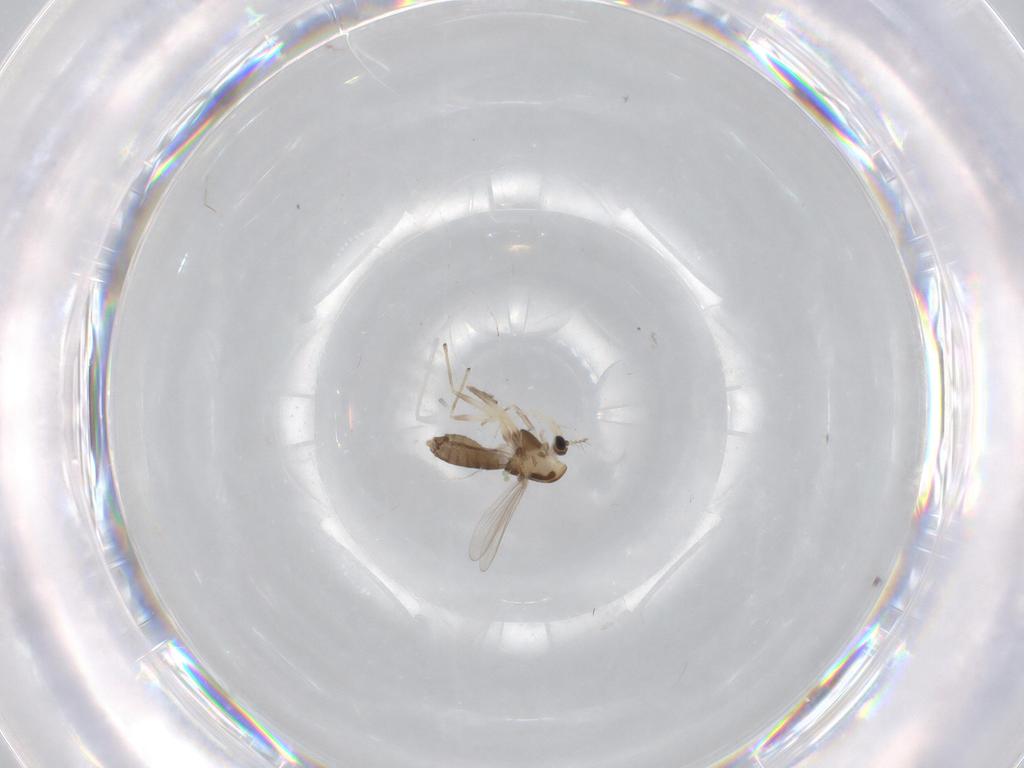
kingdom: Animalia
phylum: Arthropoda
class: Insecta
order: Diptera
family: Chironomidae
